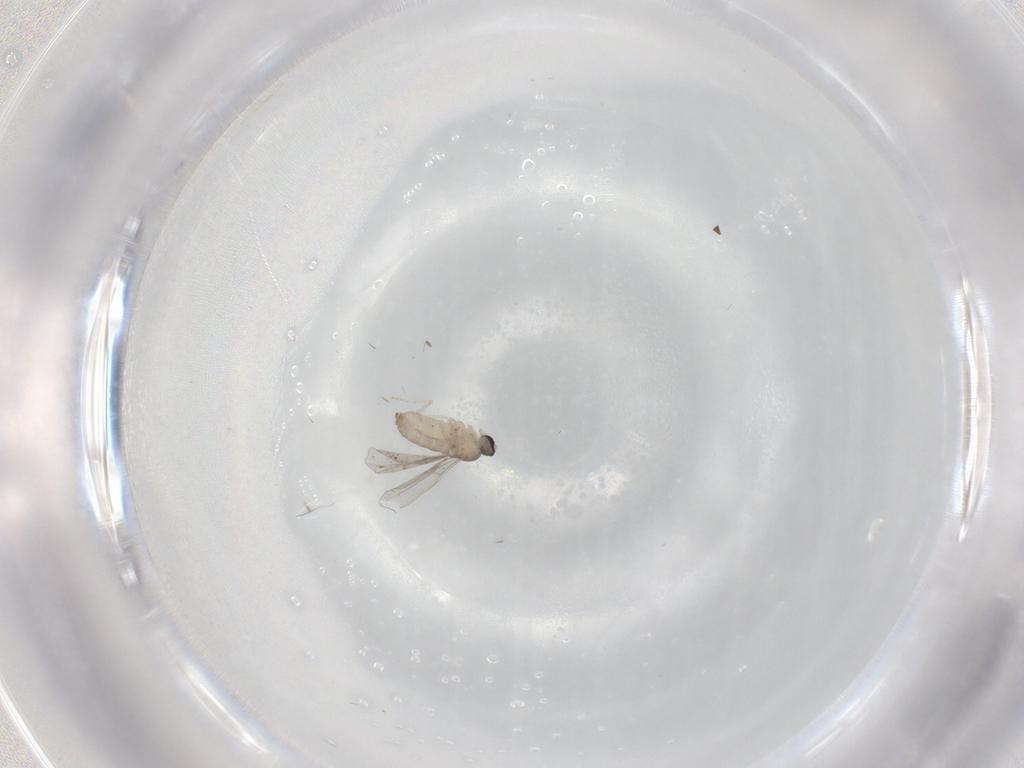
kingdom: Animalia
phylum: Arthropoda
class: Insecta
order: Diptera
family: Cecidomyiidae
